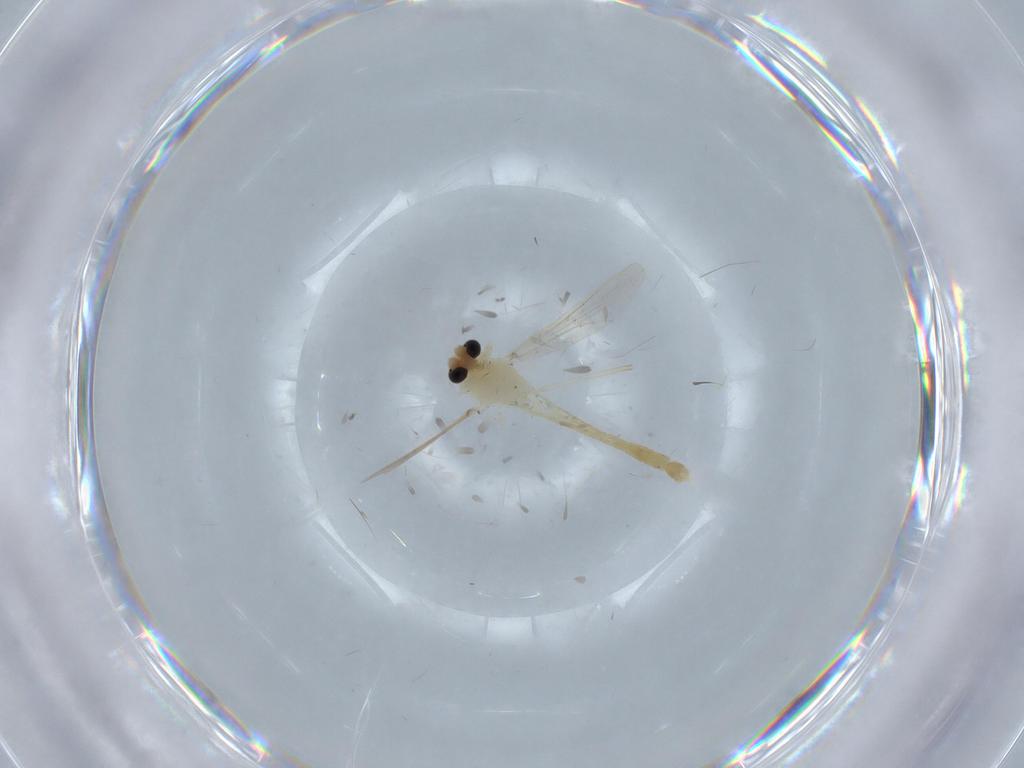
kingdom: Animalia
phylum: Arthropoda
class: Insecta
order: Diptera
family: Chironomidae
